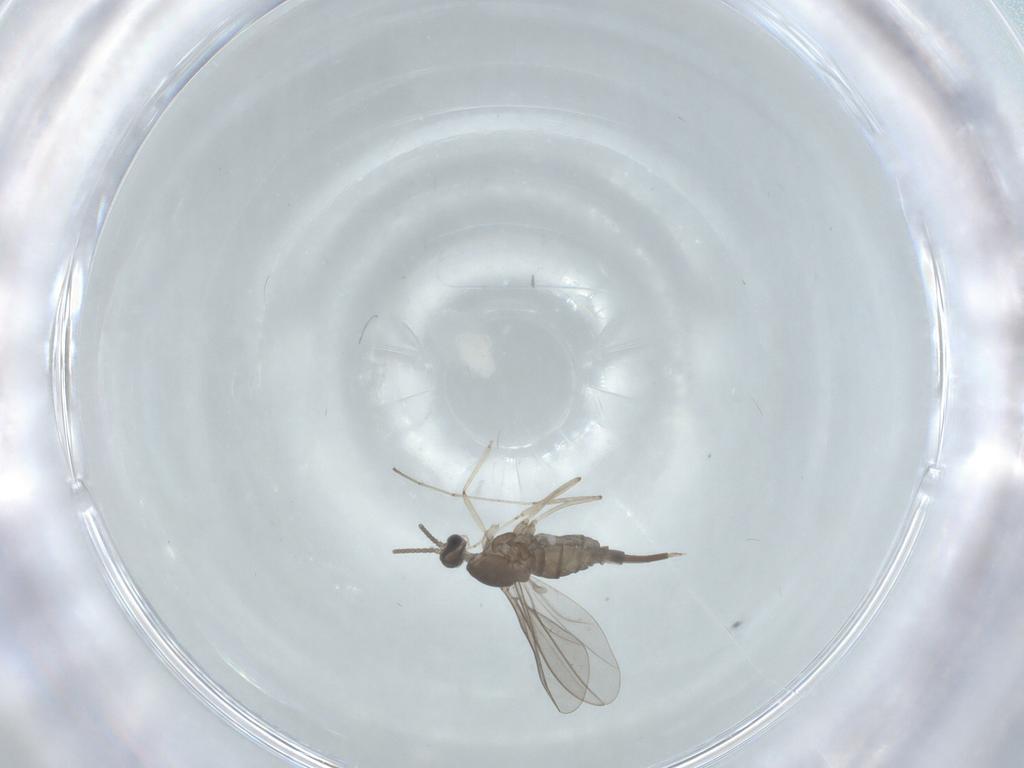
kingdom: Animalia
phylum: Arthropoda
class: Insecta
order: Diptera
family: Cecidomyiidae
